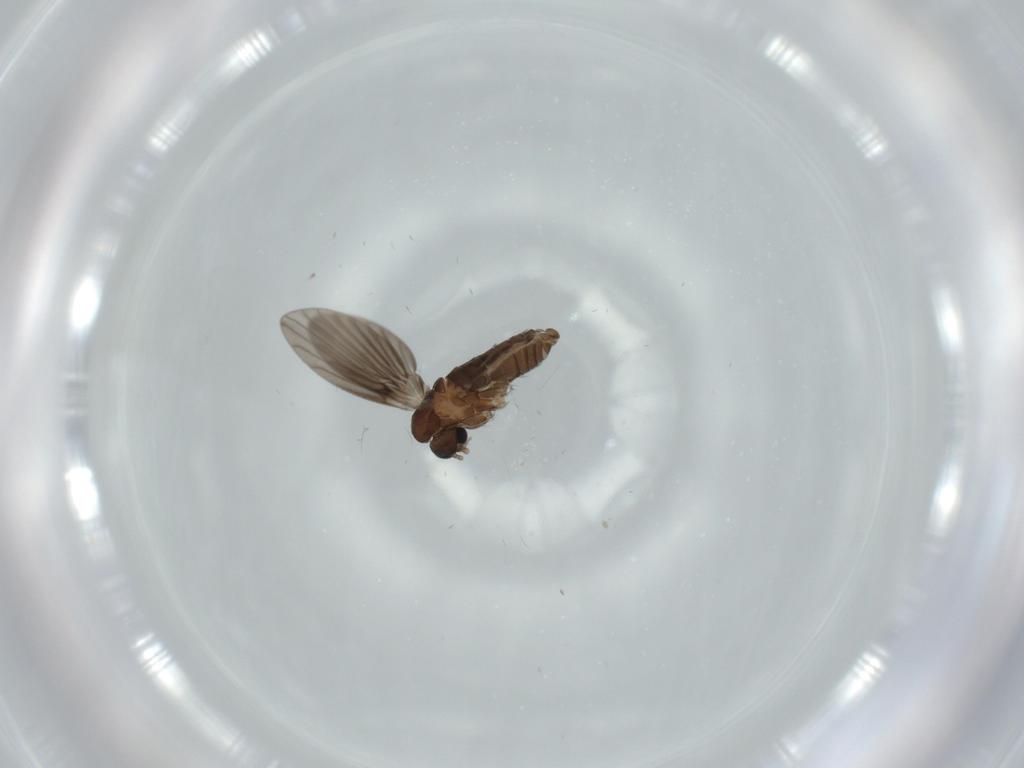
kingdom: Animalia
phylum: Arthropoda
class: Insecta
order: Diptera
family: Psychodidae
